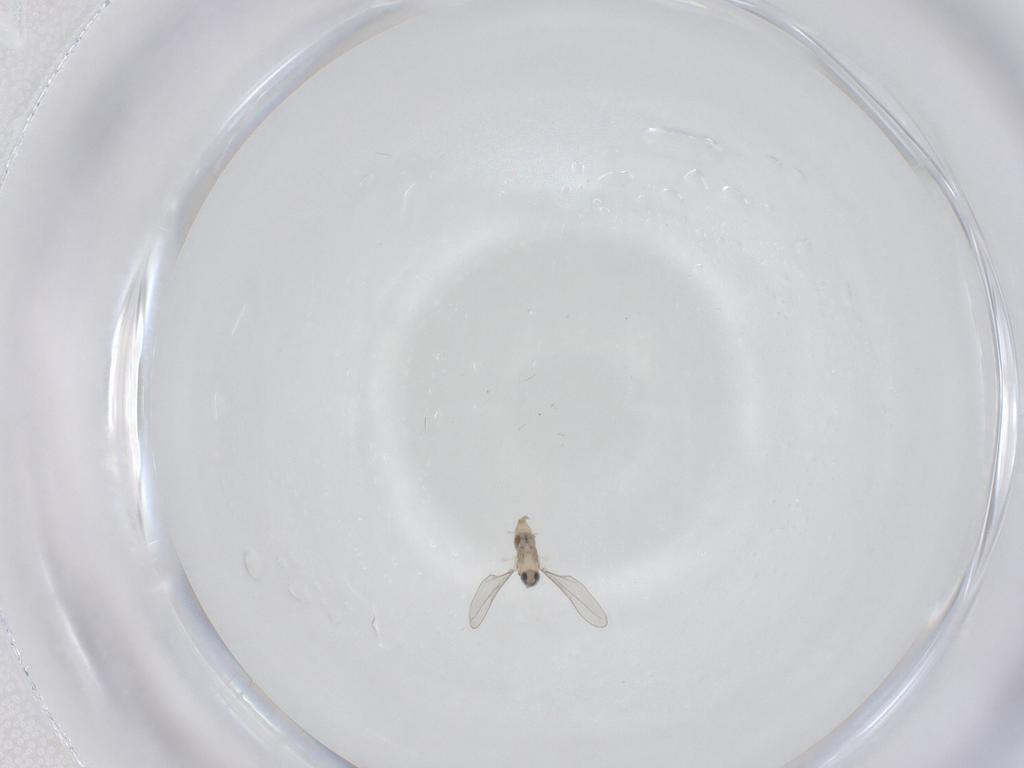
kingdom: Animalia
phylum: Arthropoda
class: Insecta
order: Diptera
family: Cecidomyiidae
